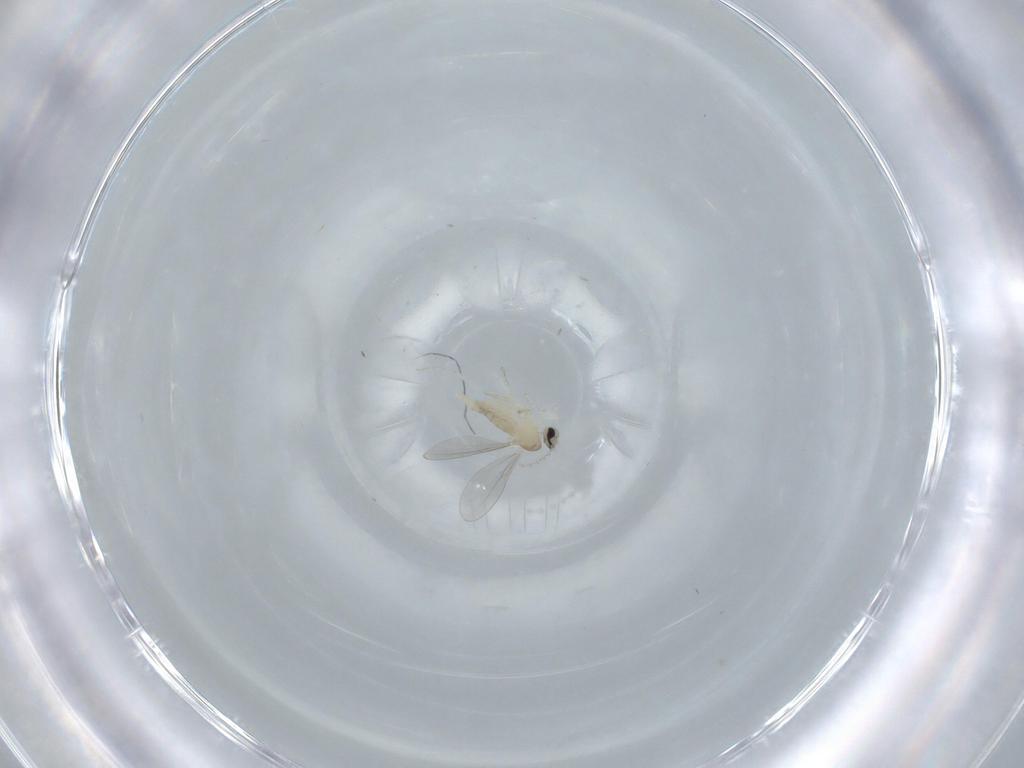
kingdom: Animalia
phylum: Arthropoda
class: Insecta
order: Diptera
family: Cecidomyiidae
